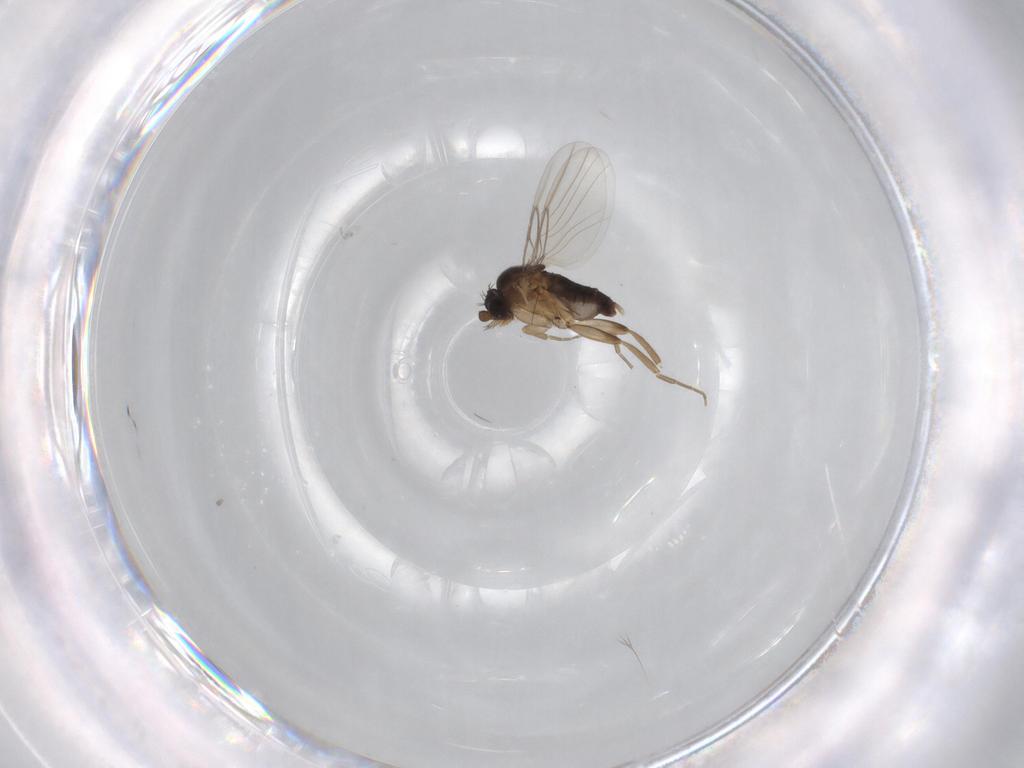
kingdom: Animalia
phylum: Arthropoda
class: Insecta
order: Diptera
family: Phoridae
